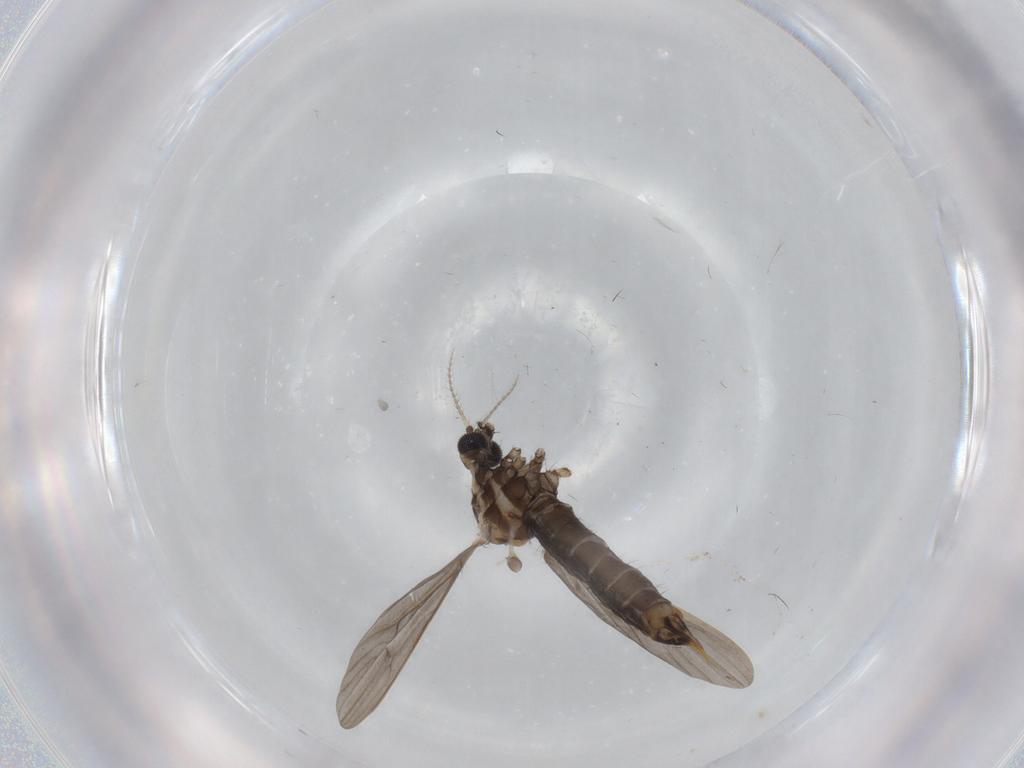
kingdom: Animalia
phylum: Arthropoda
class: Insecta
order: Diptera
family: Limoniidae
